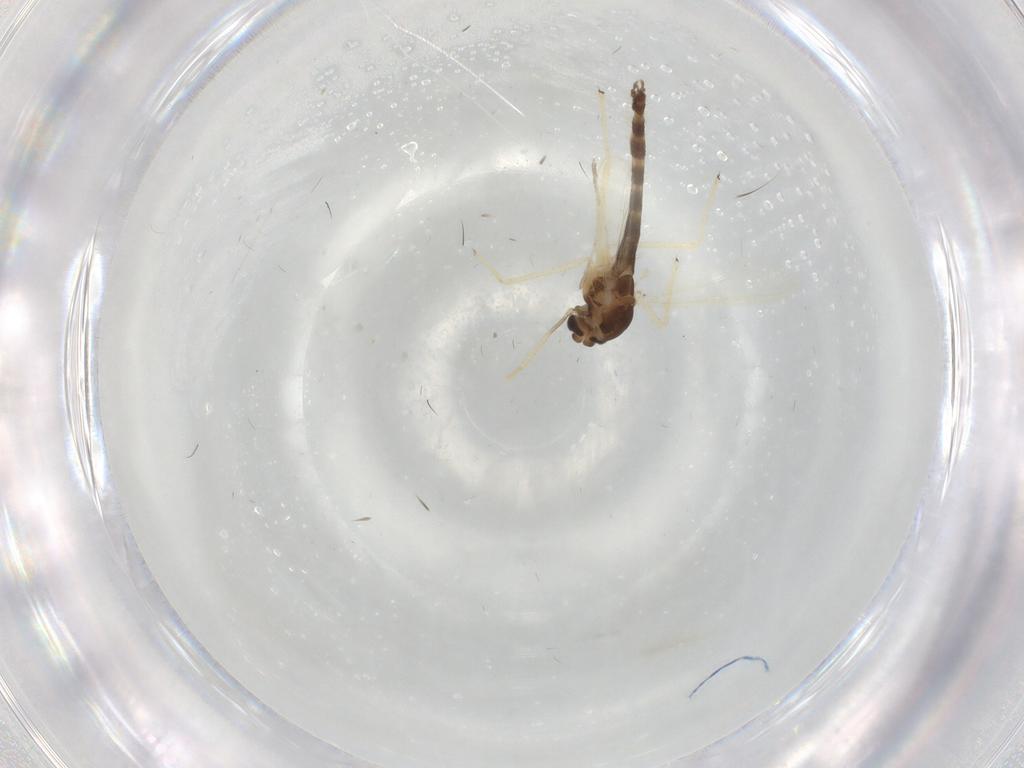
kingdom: Animalia
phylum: Arthropoda
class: Insecta
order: Diptera
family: Chironomidae
